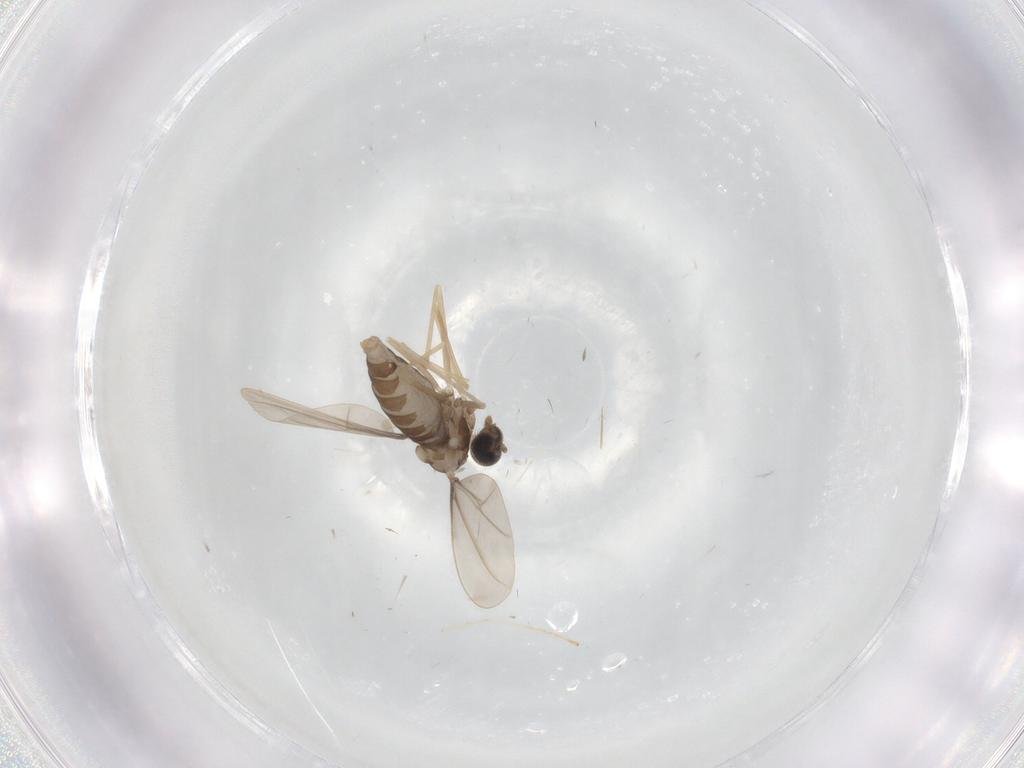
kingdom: Animalia
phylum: Arthropoda
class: Insecta
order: Diptera
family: Cecidomyiidae
